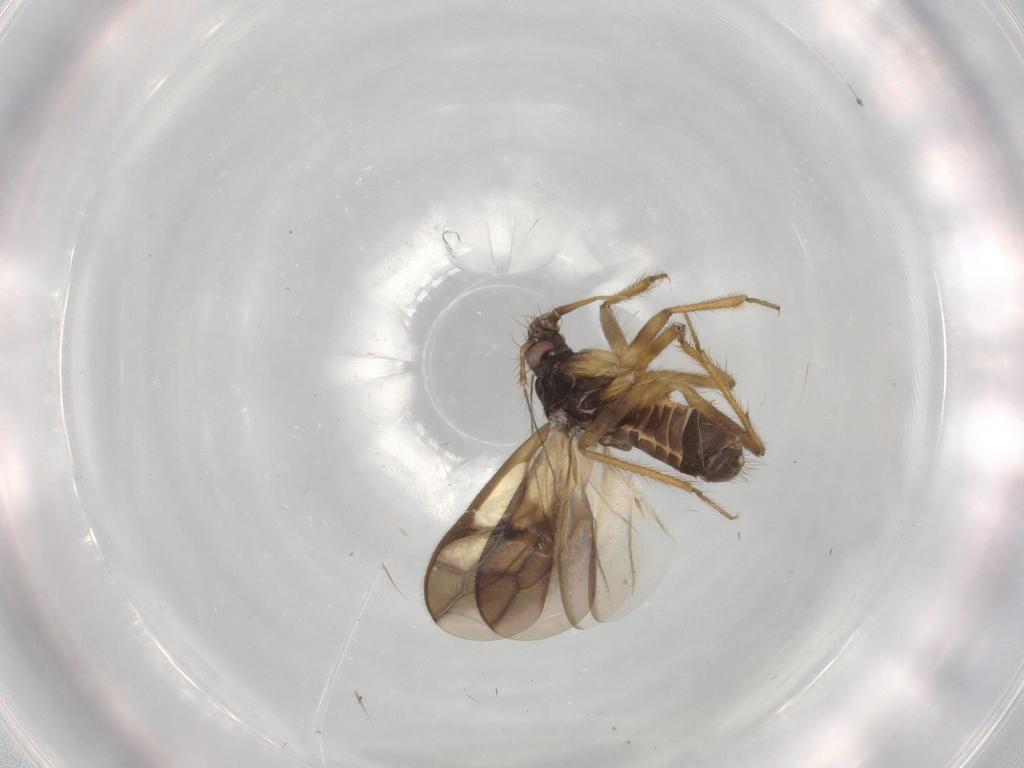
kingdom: Animalia
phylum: Arthropoda
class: Insecta
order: Hemiptera
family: Ceratocombidae
